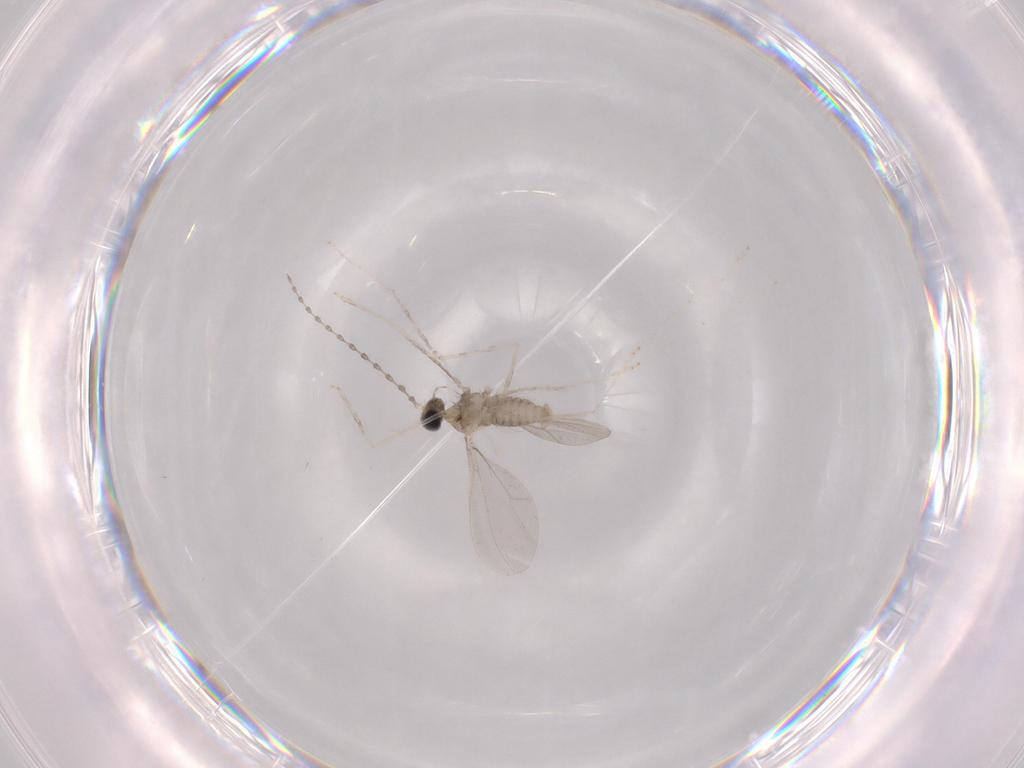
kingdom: Animalia
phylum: Arthropoda
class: Insecta
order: Diptera
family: Cecidomyiidae
